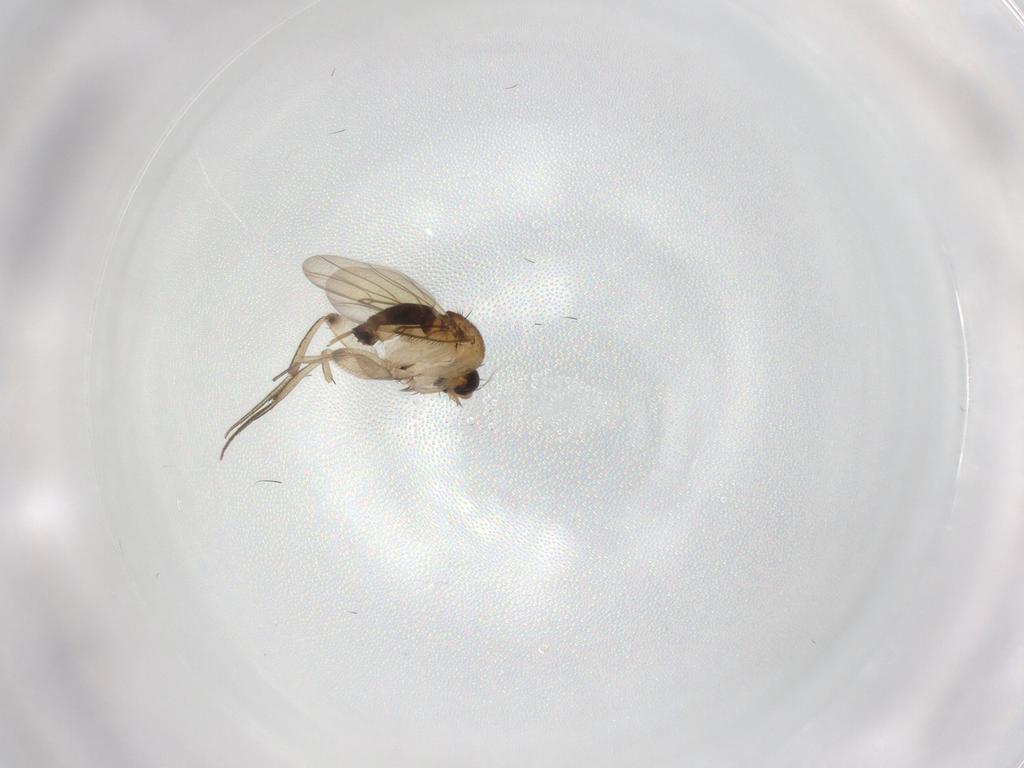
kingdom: Animalia
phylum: Arthropoda
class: Insecta
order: Diptera
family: Phoridae
